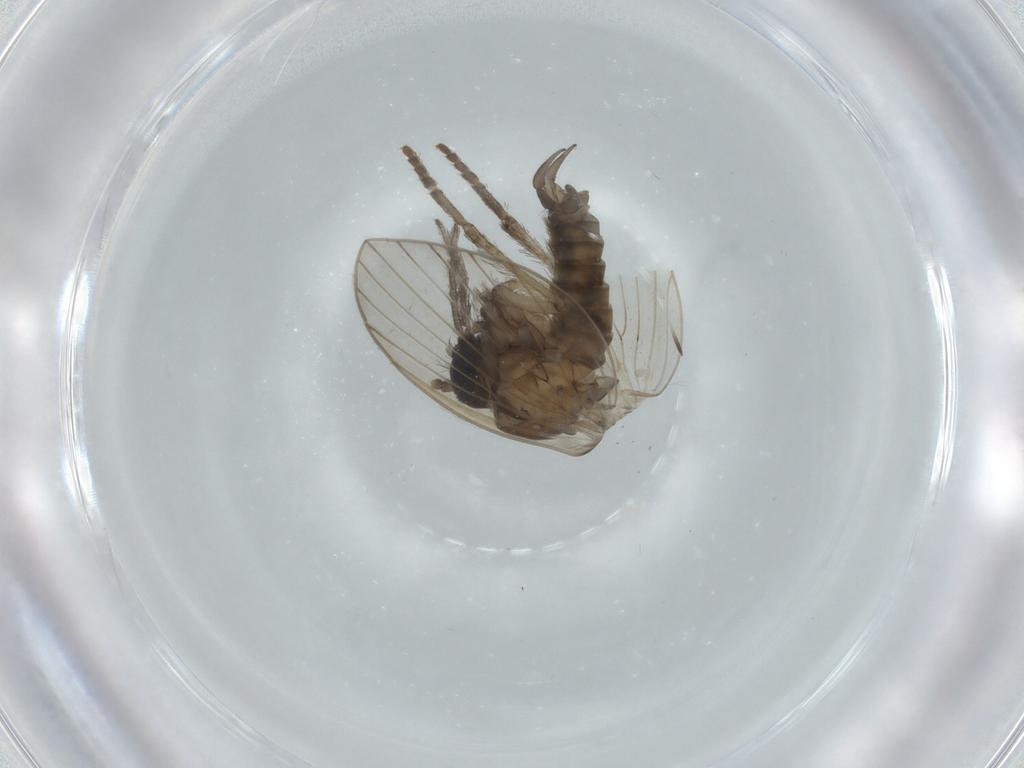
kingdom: Animalia
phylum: Arthropoda
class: Insecta
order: Diptera
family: Cecidomyiidae
